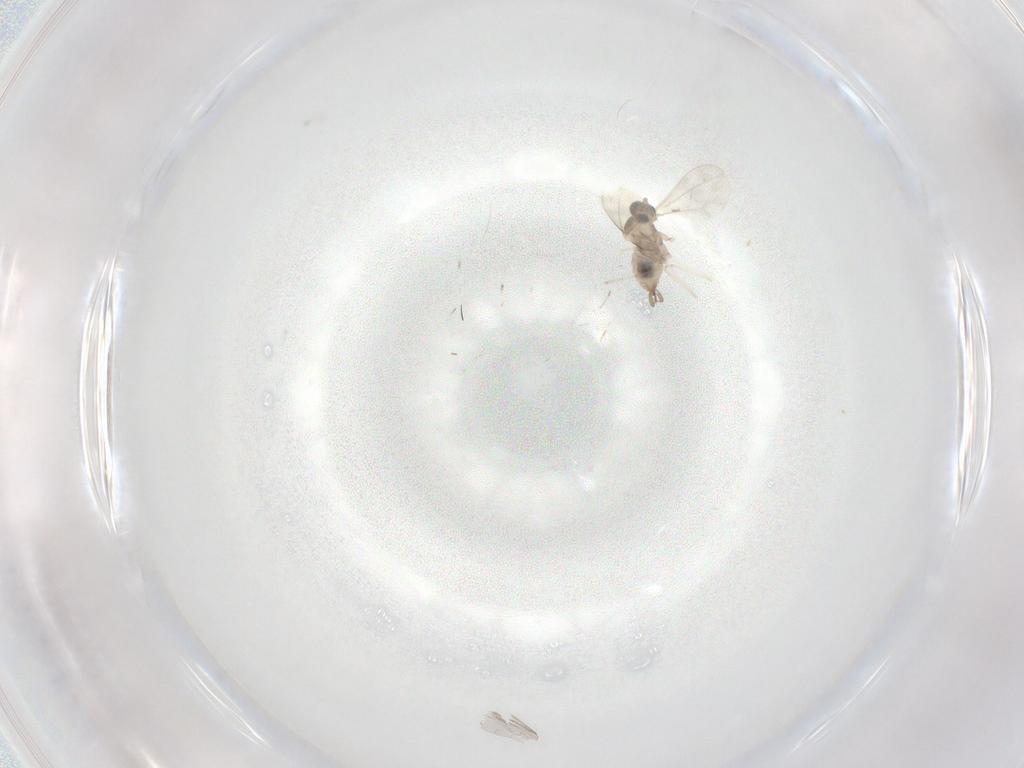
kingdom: Animalia
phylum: Arthropoda
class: Insecta
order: Diptera
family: Cecidomyiidae
